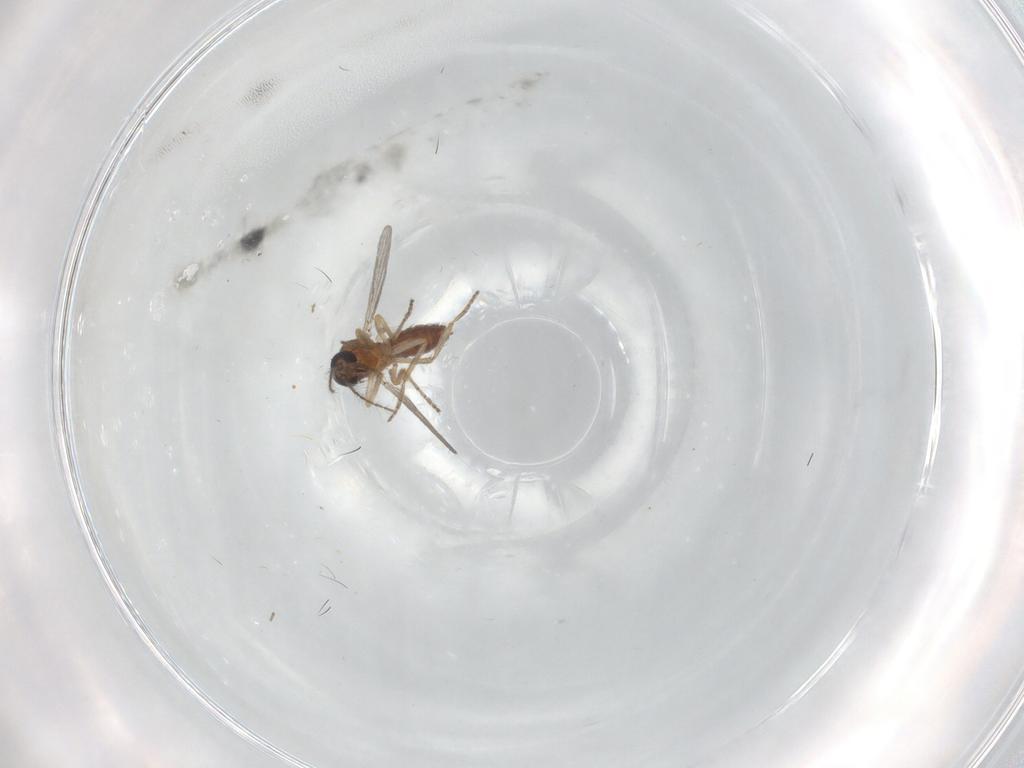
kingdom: Animalia
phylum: Arthropoda
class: Insecta
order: Diptera
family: Ceratopogonidae
